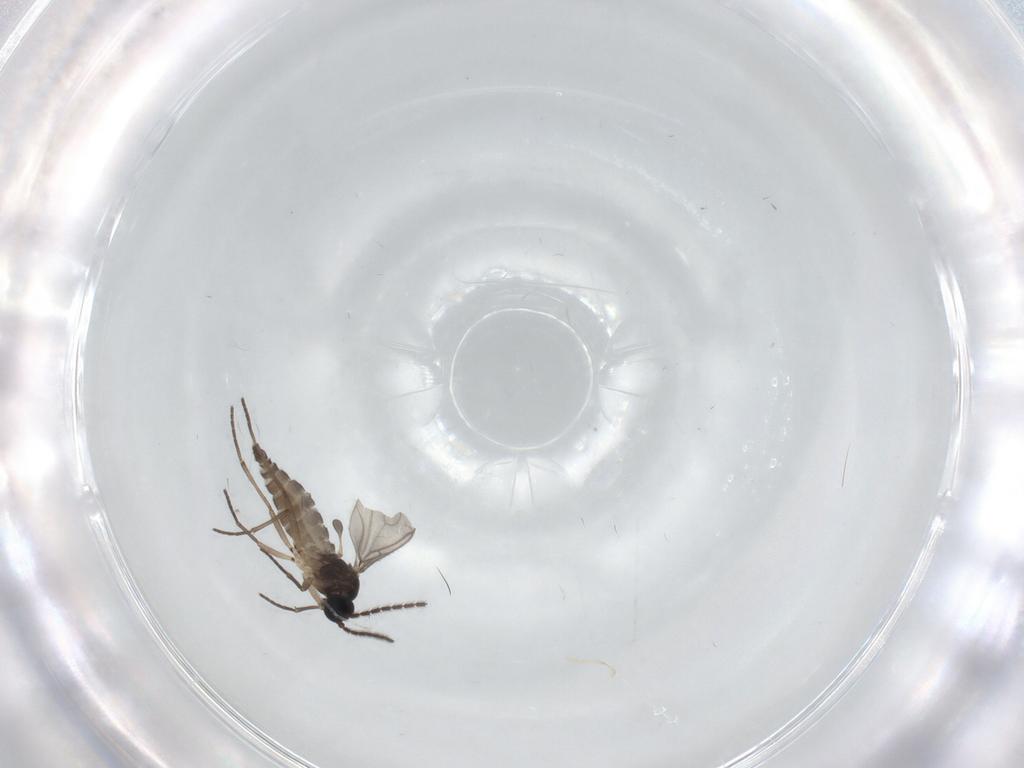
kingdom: Animalia
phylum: Arthropoda
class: Insecta
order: Diptera
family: Sciaridae
